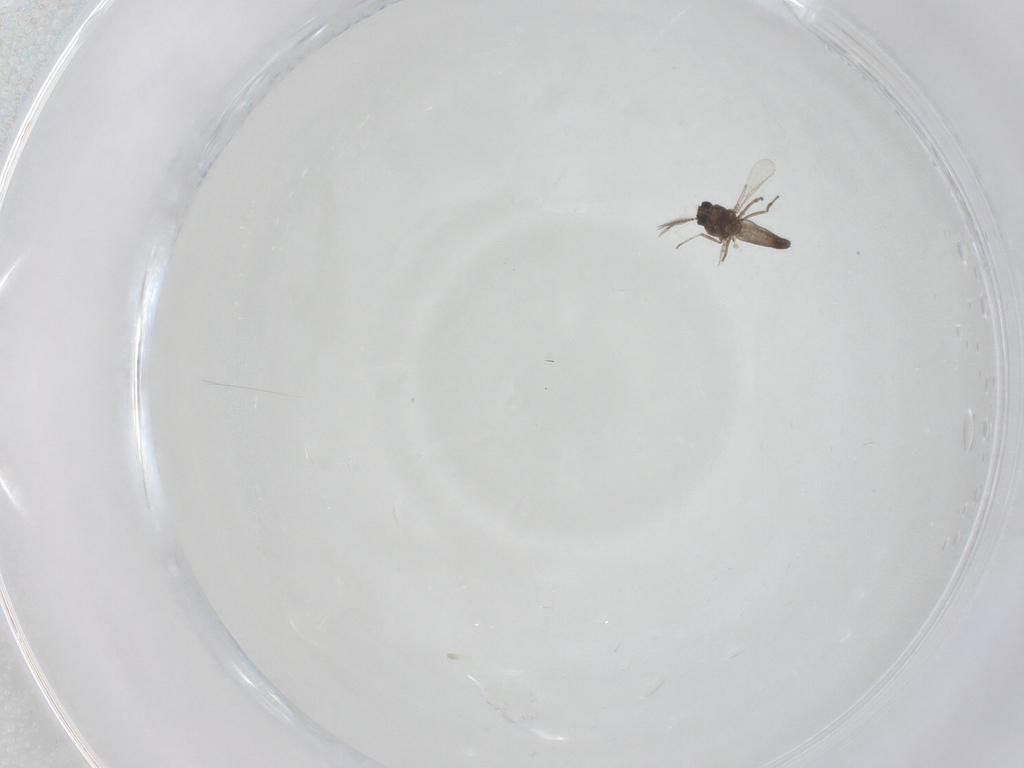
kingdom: Animalia
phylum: Arthropoda
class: Insecta
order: Diptera
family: Ceratopogonidae
